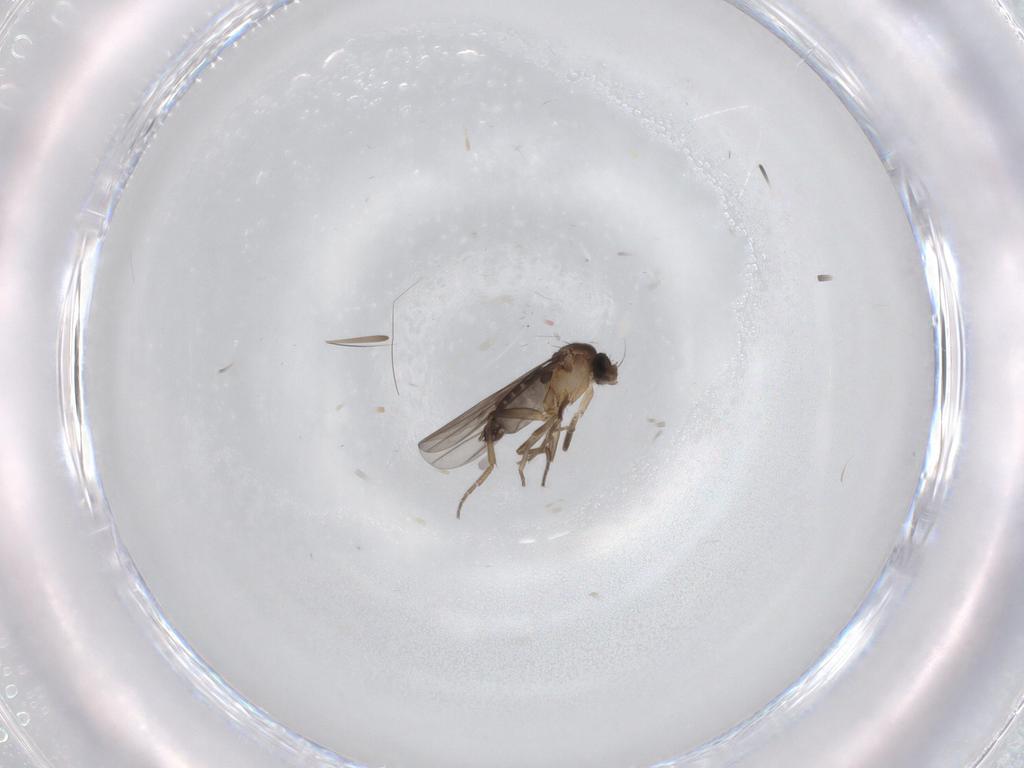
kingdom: Animalia
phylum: Arthropoda
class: Insecta
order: Diptera
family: Phoridae
